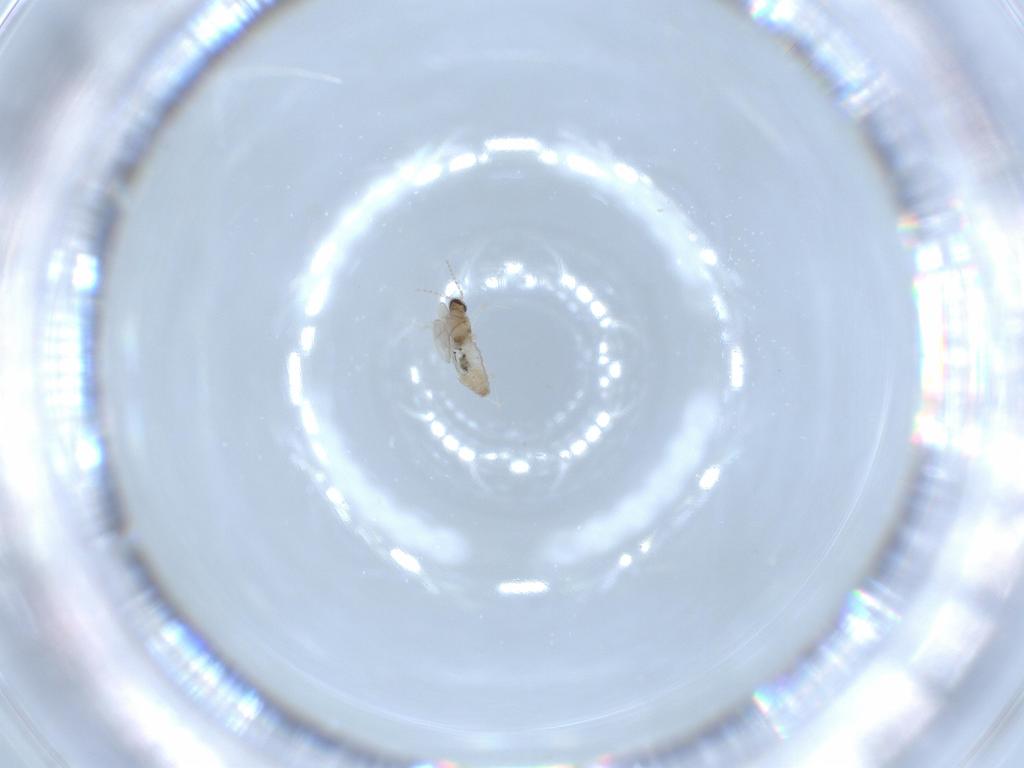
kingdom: Animalia
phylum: Arthropoda
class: Insecta
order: Diptera
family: Cecidomyiidae
